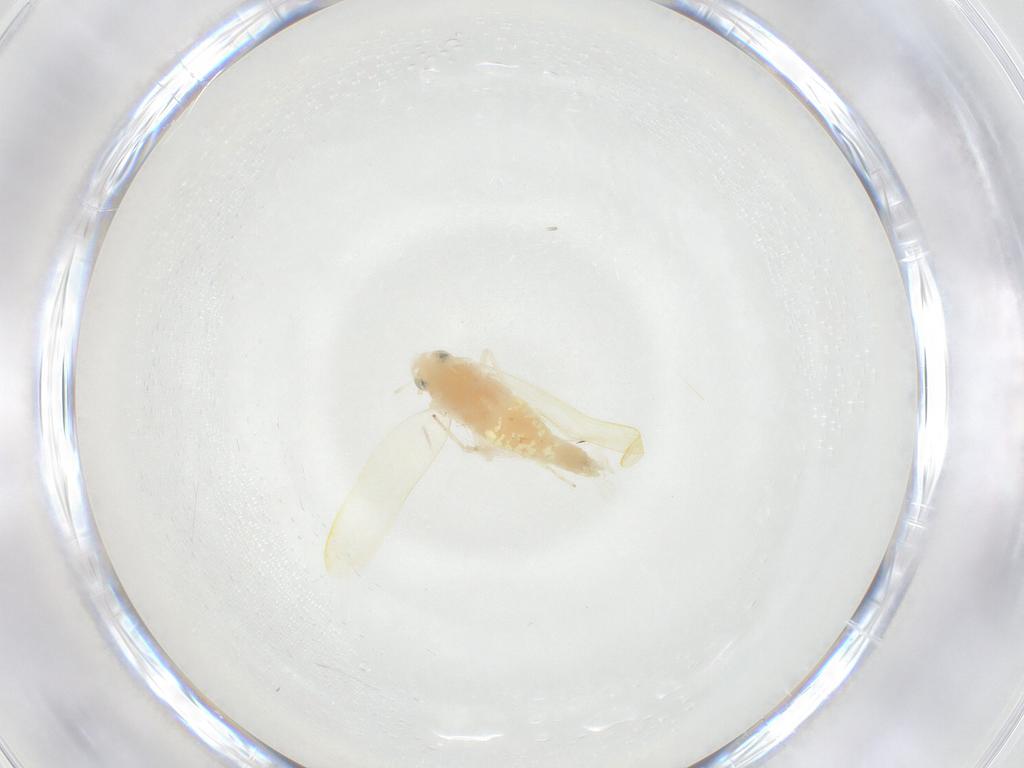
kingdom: Animalia
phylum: Arthropoda
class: Insecta
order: Hemiptera
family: Cicadellidae
